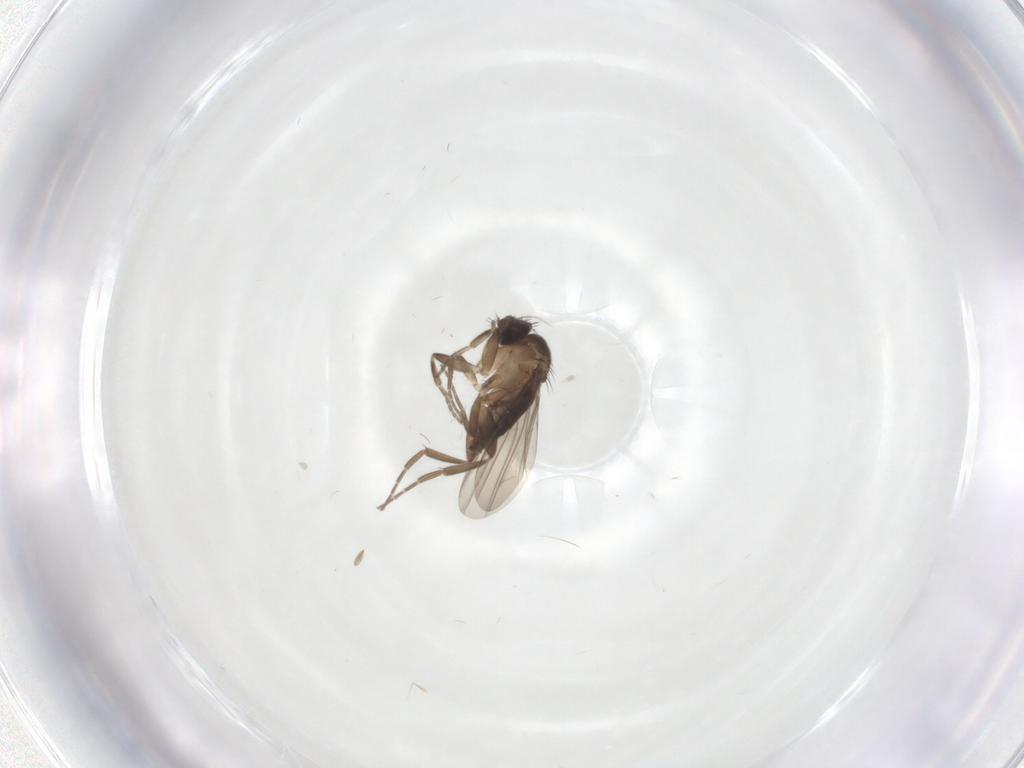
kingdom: Animalia
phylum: Arthropoda
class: Insecta
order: Diptera
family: Phoridae
